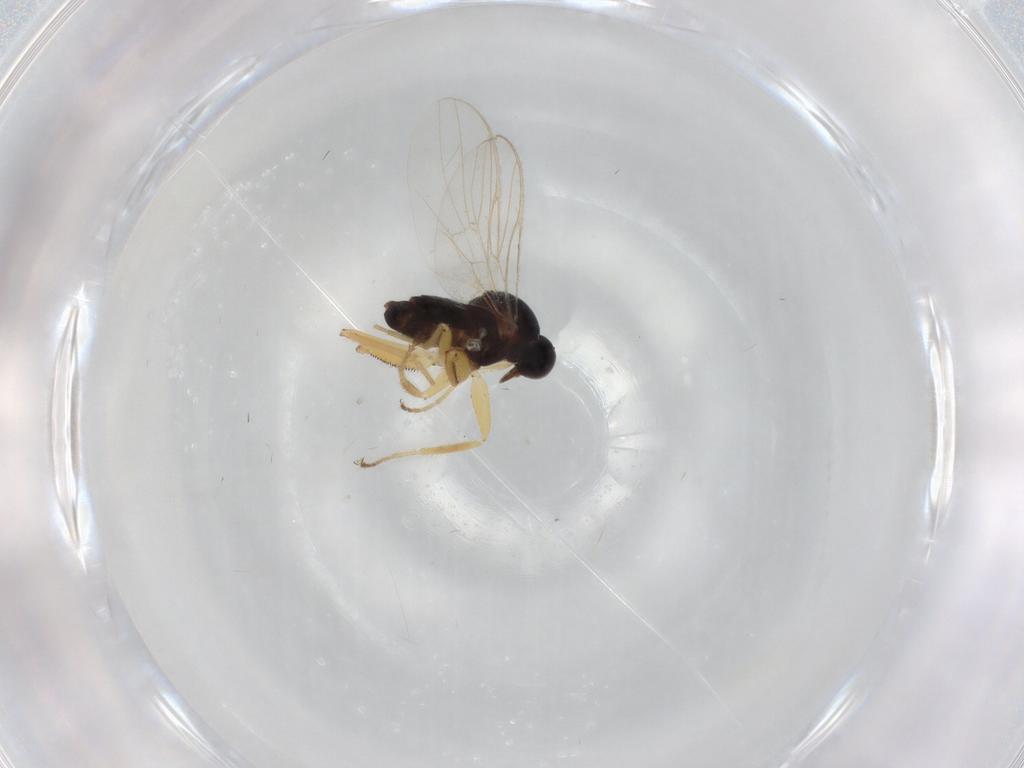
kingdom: Animalia
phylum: Arthropoda
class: Insecta
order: Diptera
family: Hybotidae
